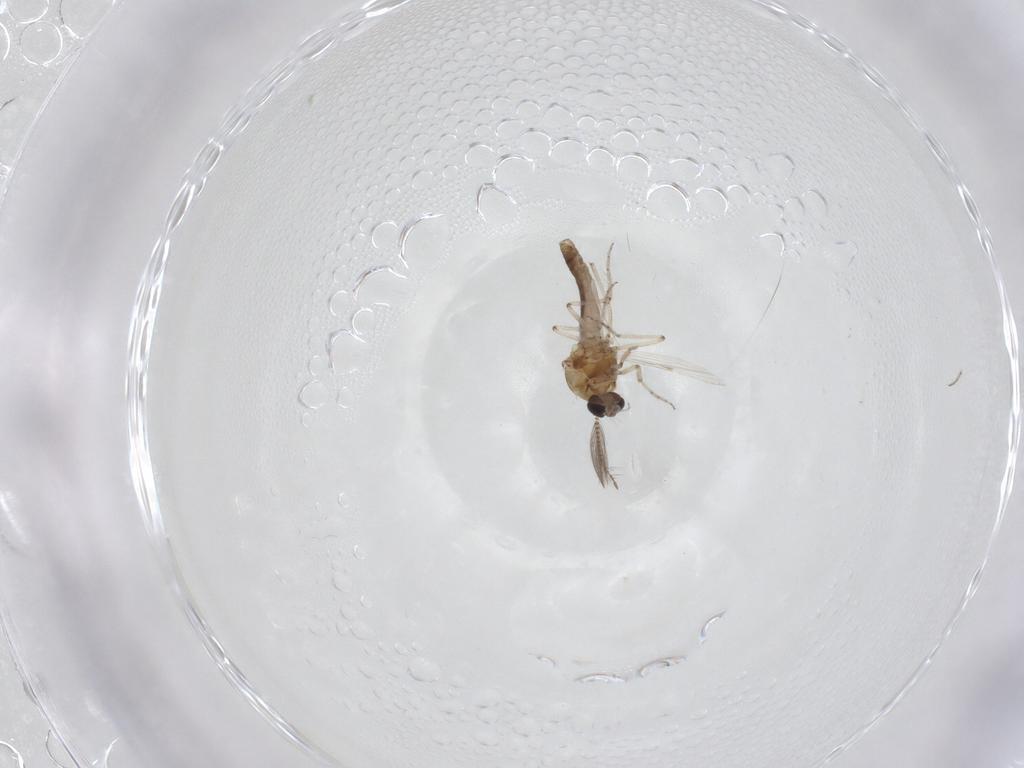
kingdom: Animalia
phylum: Arthropoda
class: Insecta
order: Diptera
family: Ceratopogonidae
